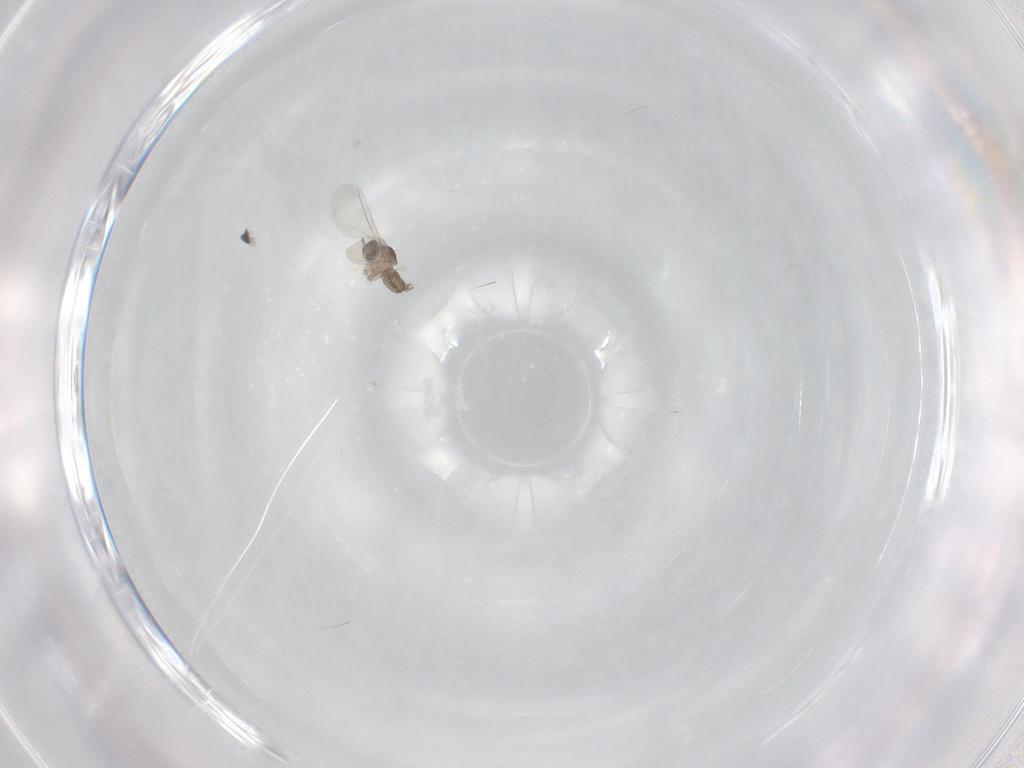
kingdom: Animalia
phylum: Arthropoda
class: Insecta
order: Diptera
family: Cecidomyiidae
